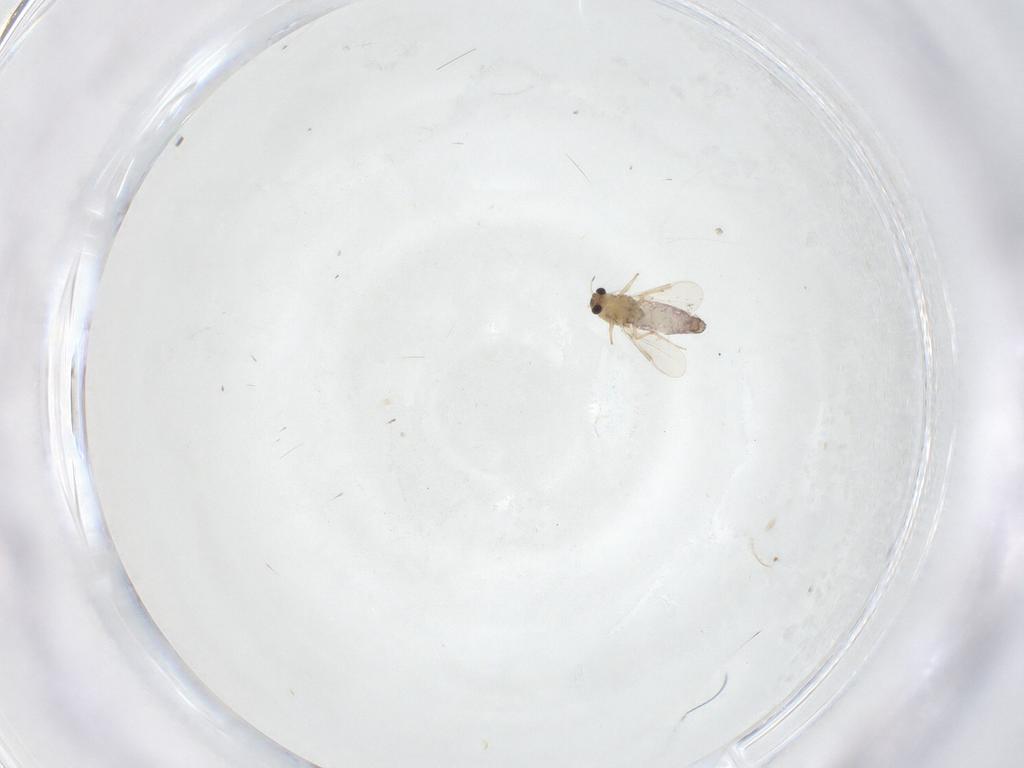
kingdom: Animalia
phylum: Arthropoda
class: Insecta
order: Diptera
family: Chironomidae
